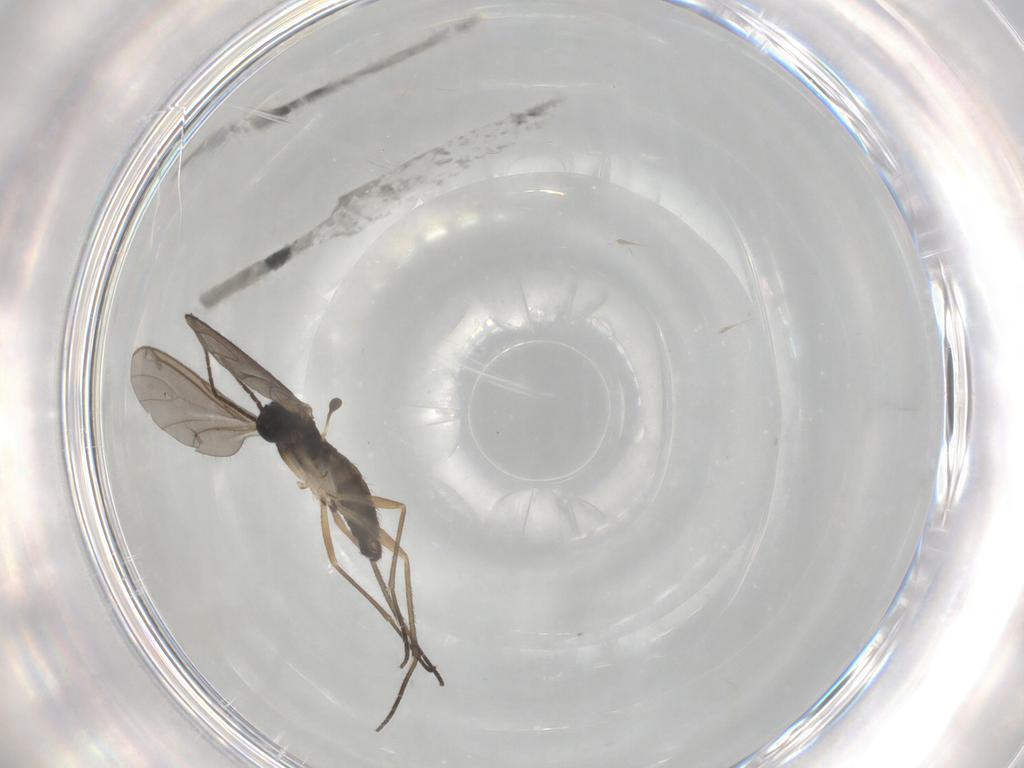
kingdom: Animalia
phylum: Arthropoda
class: Insecta
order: Diptera
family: Sciaridae
